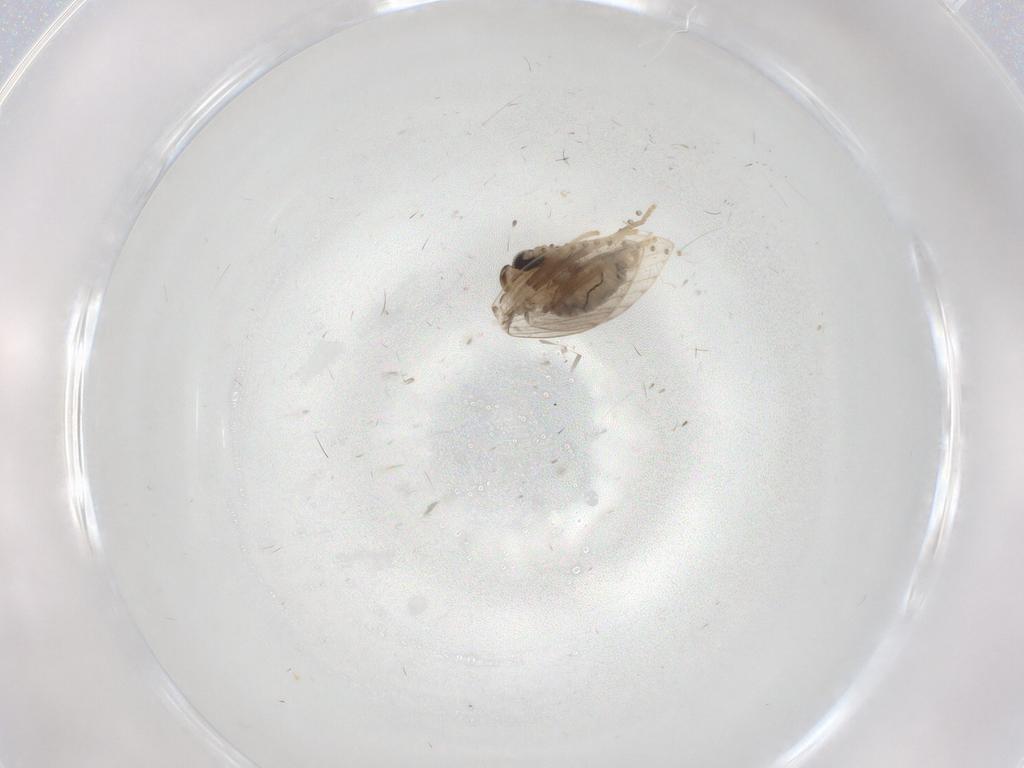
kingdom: Animalia
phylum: Arthropoda
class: Insecta
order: Diptera
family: Psychodidae
